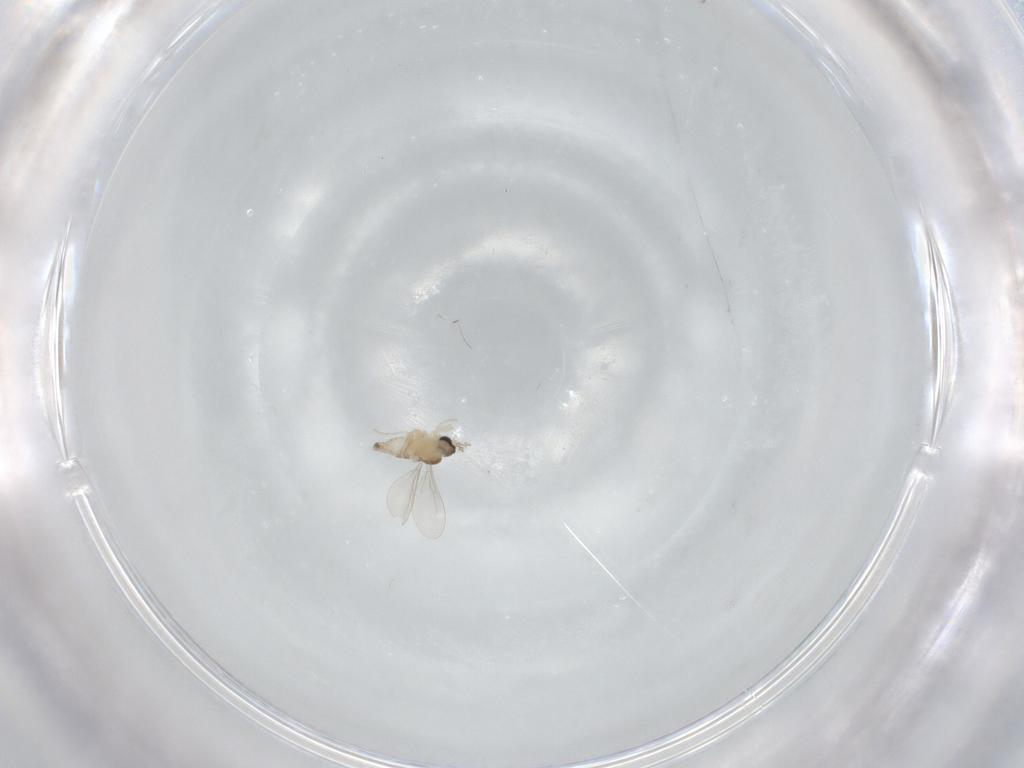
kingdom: Animalia
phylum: Arthropoda
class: Insecta
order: Diptera
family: Cecidomyiidae
